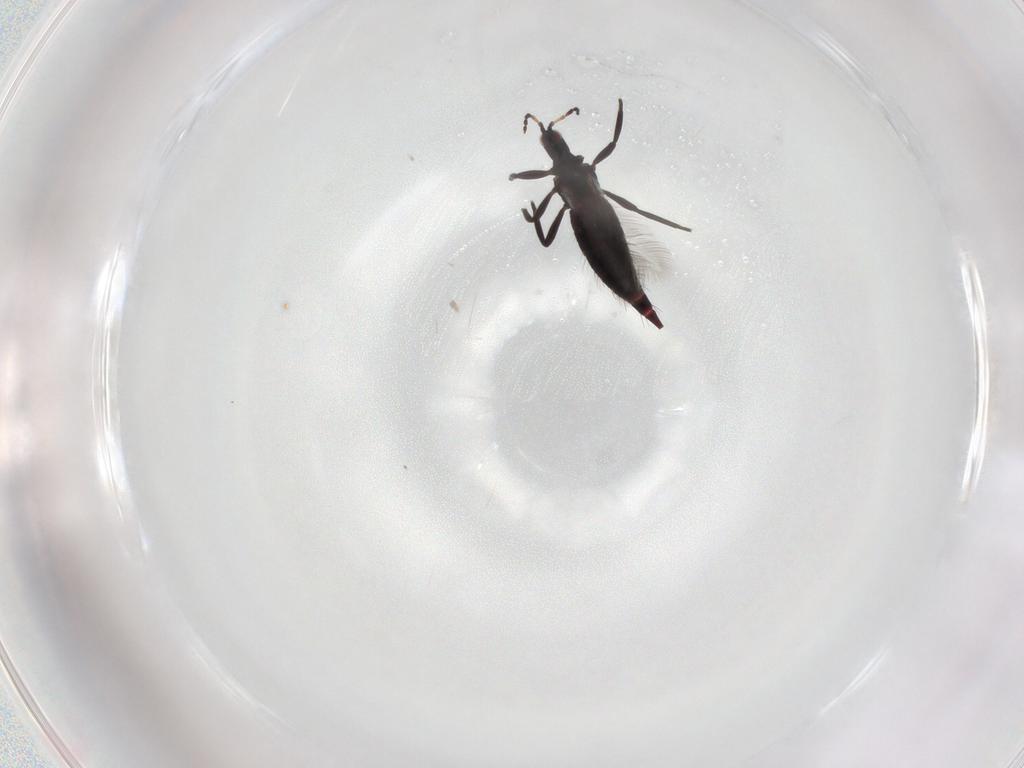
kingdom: Animalia
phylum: Arthropoda
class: Insecta
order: Thysanoptera
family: Phlaeothripidae
